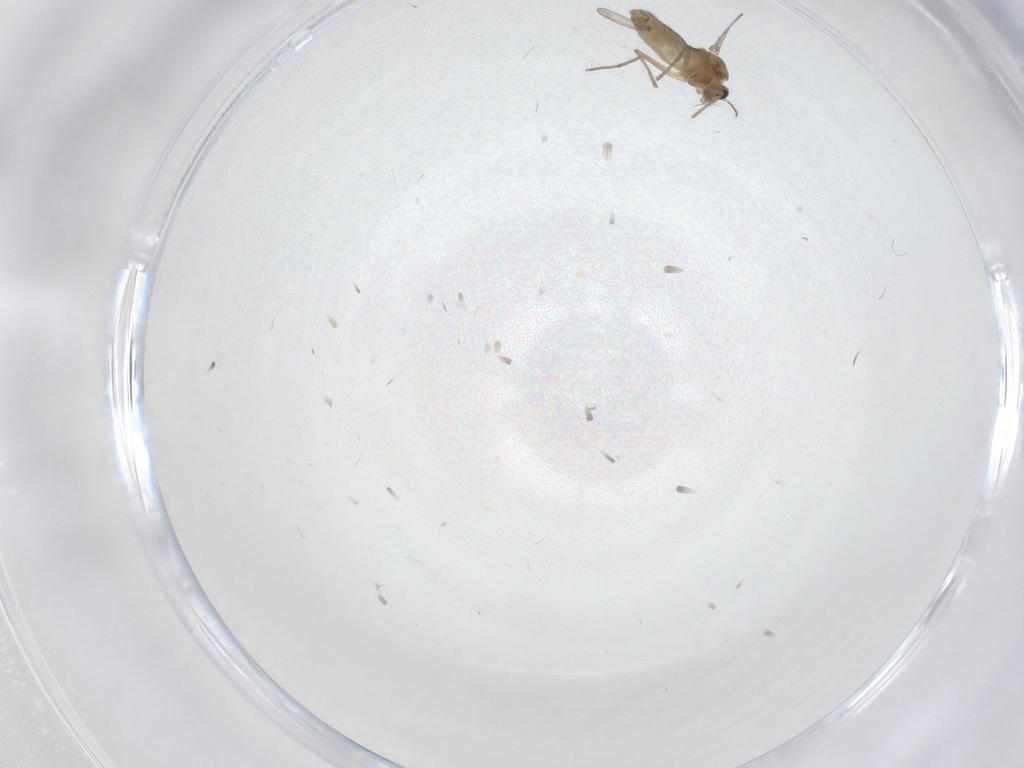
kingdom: Animalia
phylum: Arthropoda
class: Insecta
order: Diptera
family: Chironomidae
